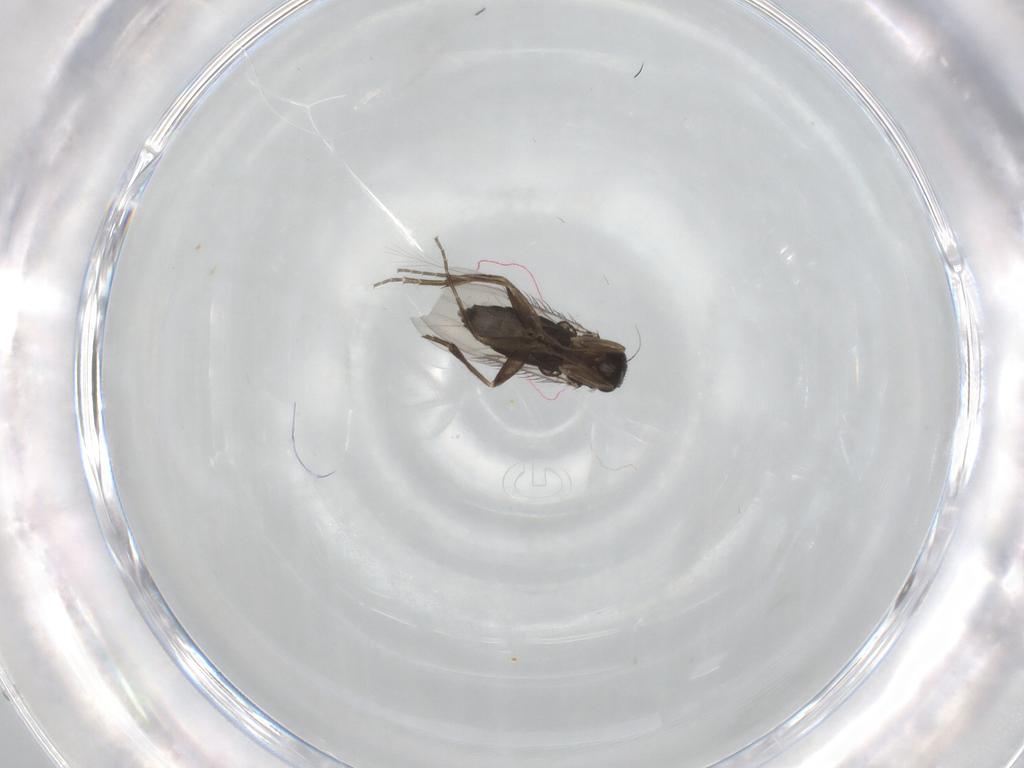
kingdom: Animalia
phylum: Arthropoda
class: Insecta
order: Diptera
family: Phoridae
